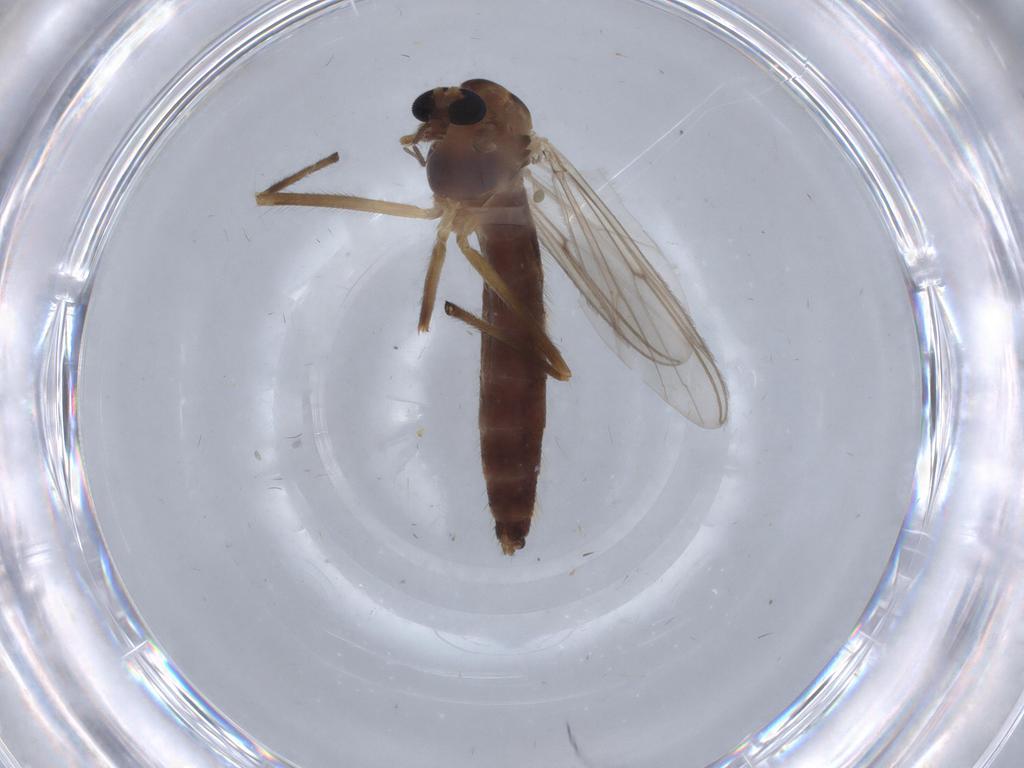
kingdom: Animalia
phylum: Arthropoda
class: Insecta
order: Diptera
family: Chironomidae
